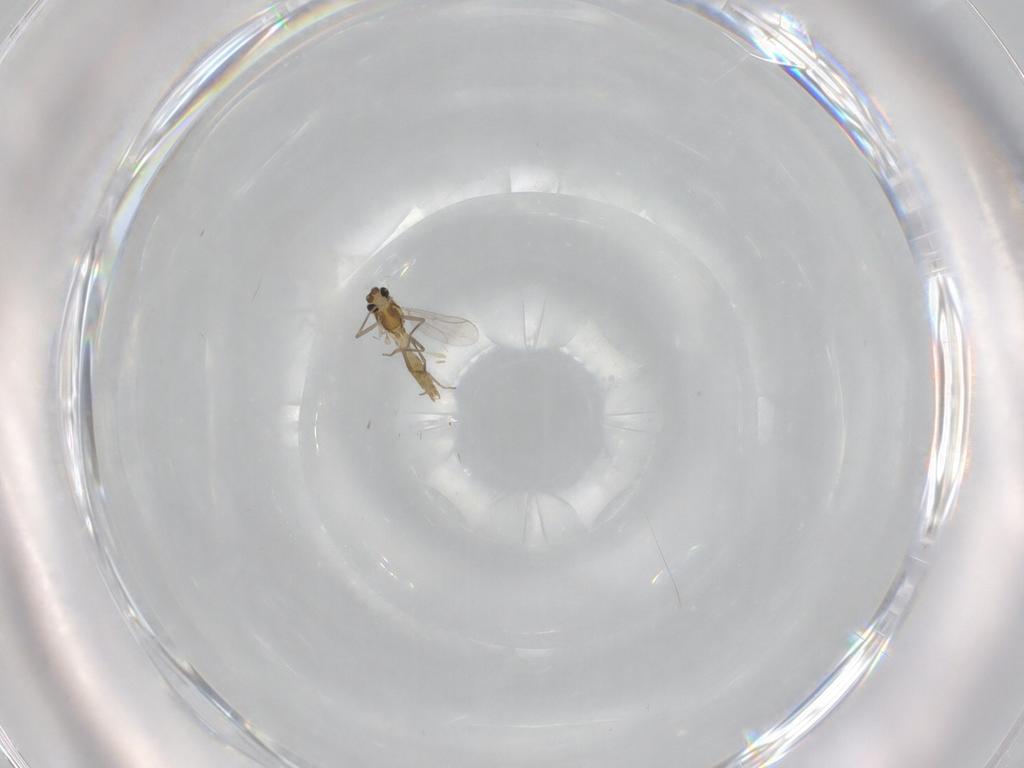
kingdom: Animalia
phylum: Arthropoda
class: Insecta
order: Diptera
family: Chironomidae
